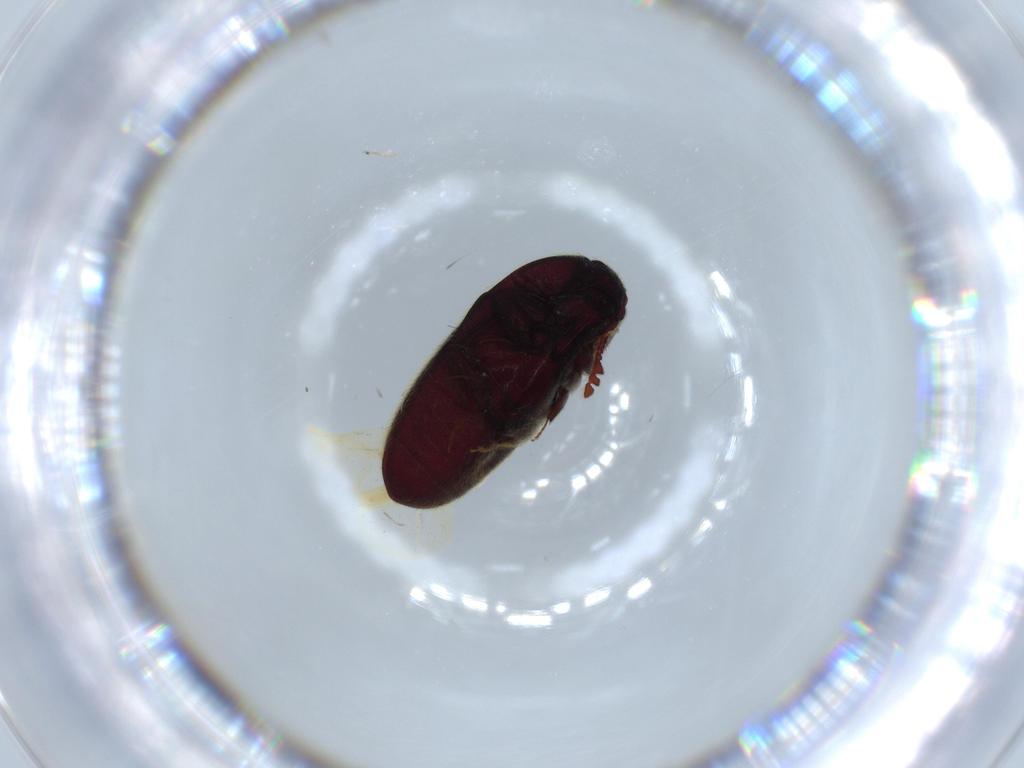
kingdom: Animalia
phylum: Arthropoda
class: Insecta
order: Coleoptera
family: Throscidae
